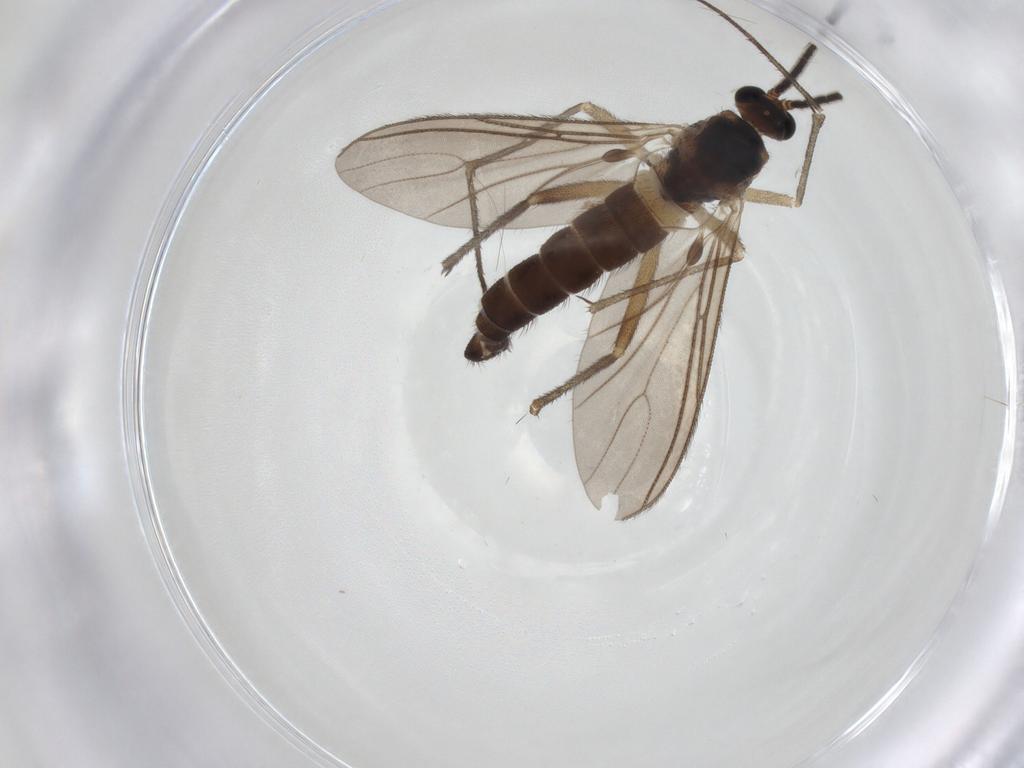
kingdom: Animalia
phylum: Arthropoda
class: Insecta
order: Diptera
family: Sciaridae
